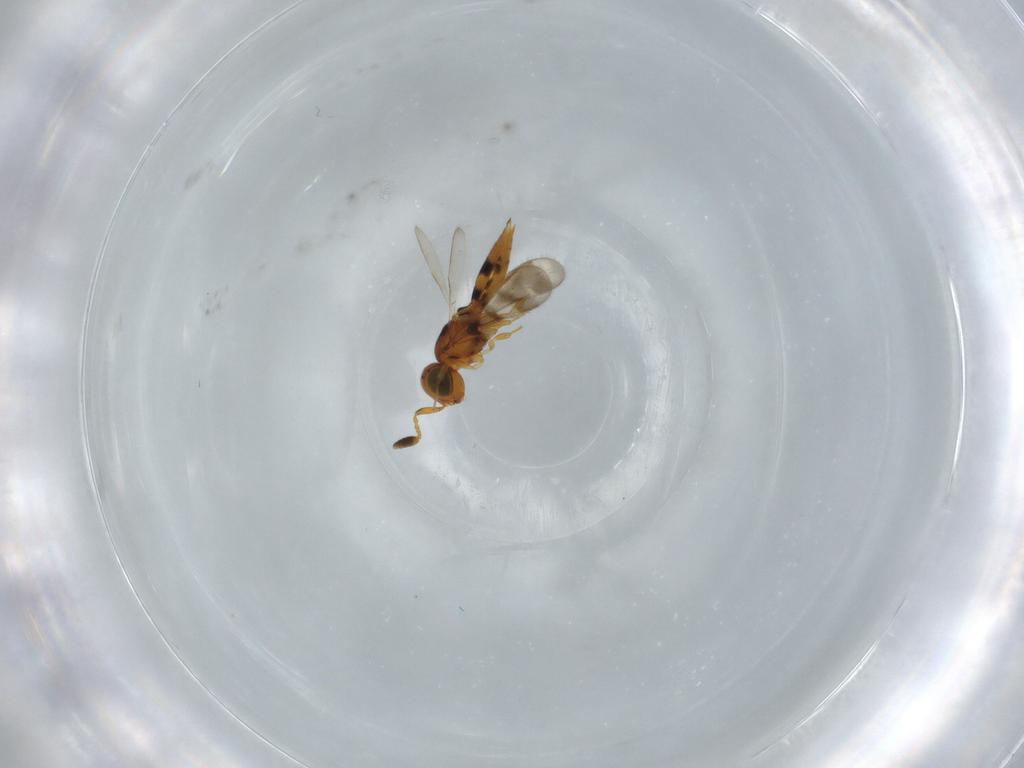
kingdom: Animalia
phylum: Arthropoda
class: Insecta
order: Hymenoptera
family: Scelionidae
